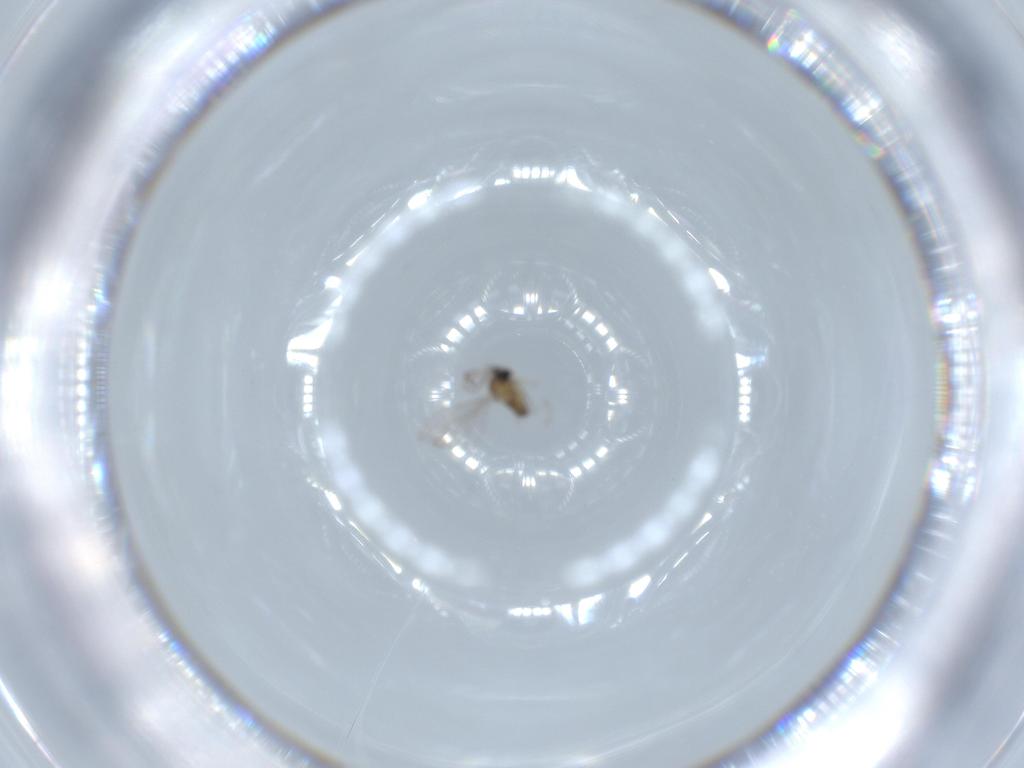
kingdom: Animalia
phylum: Arthropoda
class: Insecta
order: Diptera
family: Cecidomyiidae
